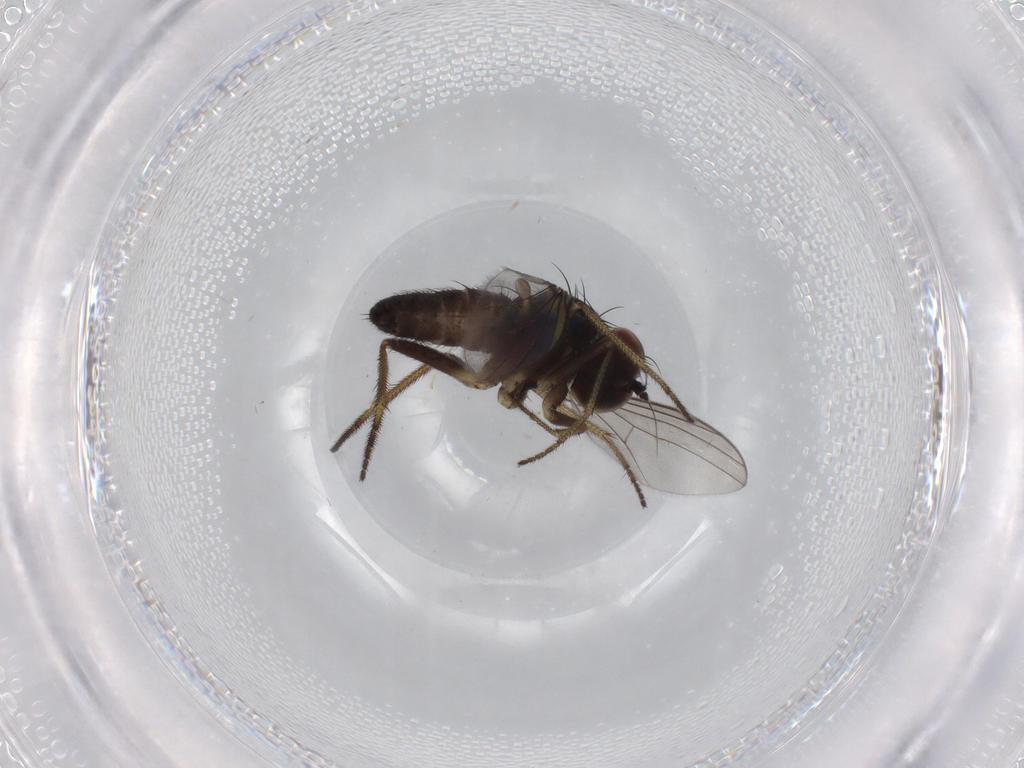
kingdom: Animalia
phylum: Arthropoda
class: Insecta
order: Diptera
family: Dolichopodidae
